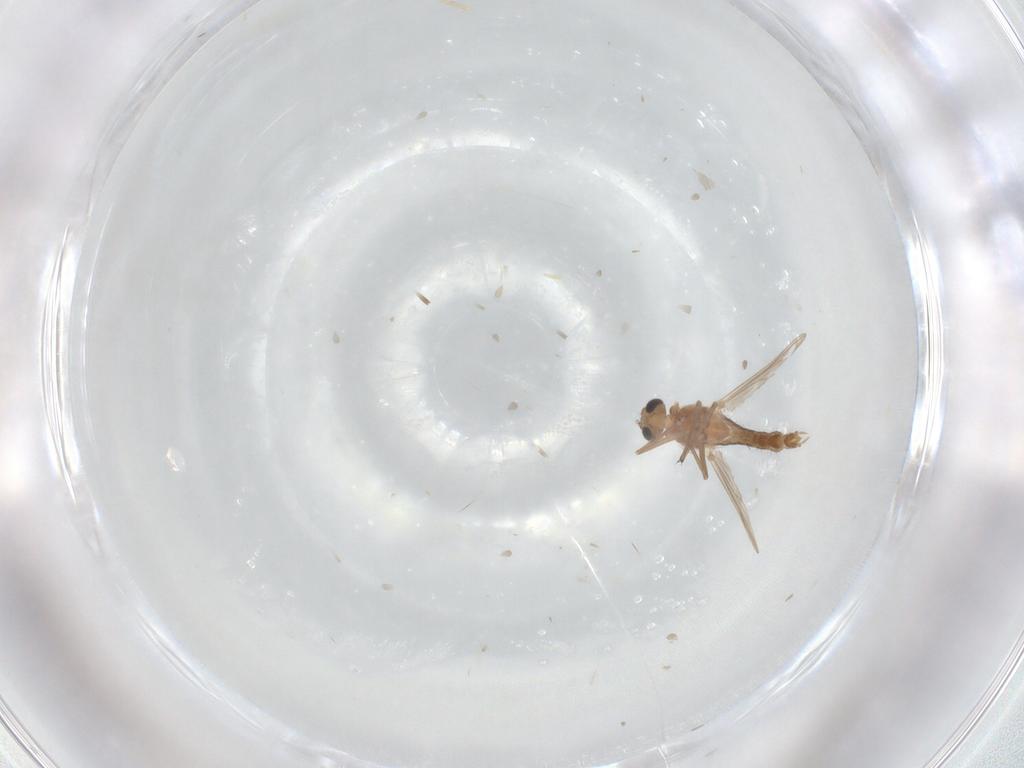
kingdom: Animalia
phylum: Arthropoda
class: Insecta
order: Diptera
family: Chironomidae
